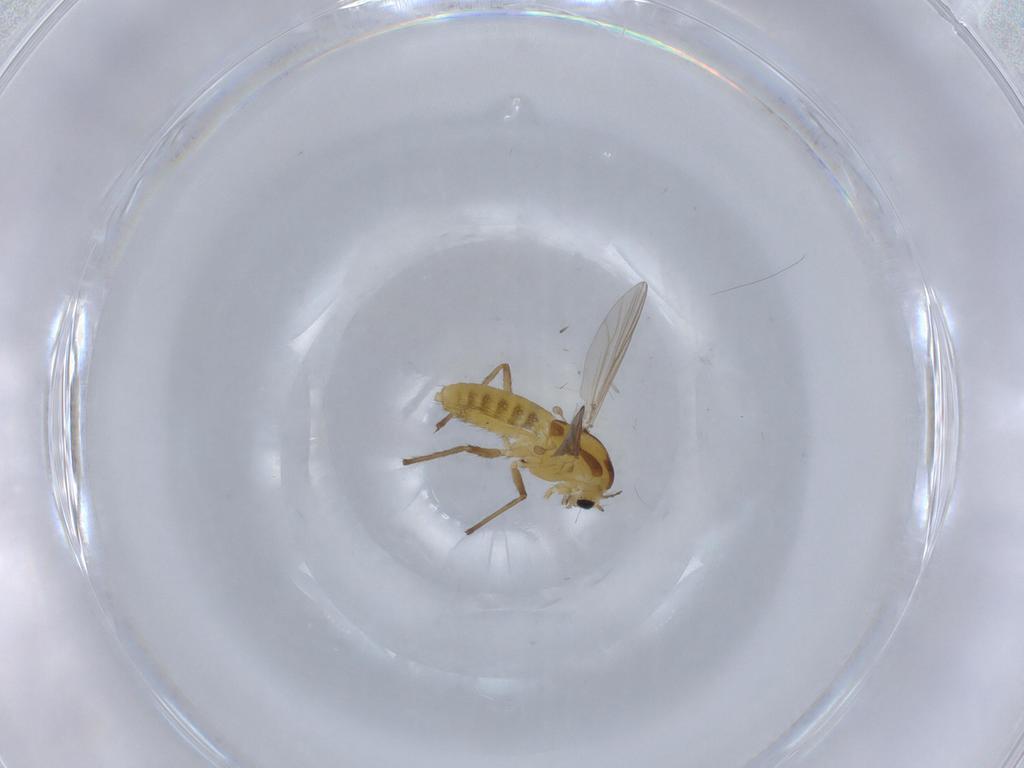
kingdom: Animalia
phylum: Arthropoda
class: Insecta
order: Diptera
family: Chironomidae
